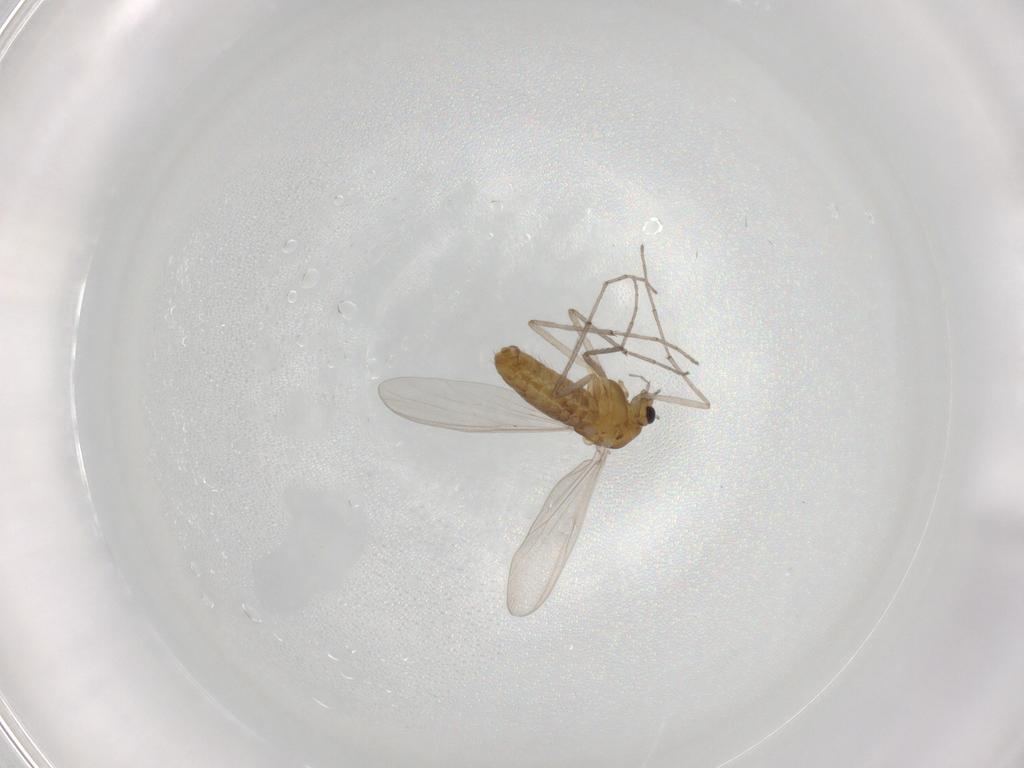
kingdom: Animalia
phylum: Arthropoda
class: Insecta
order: Diptera
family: Chironomidae
